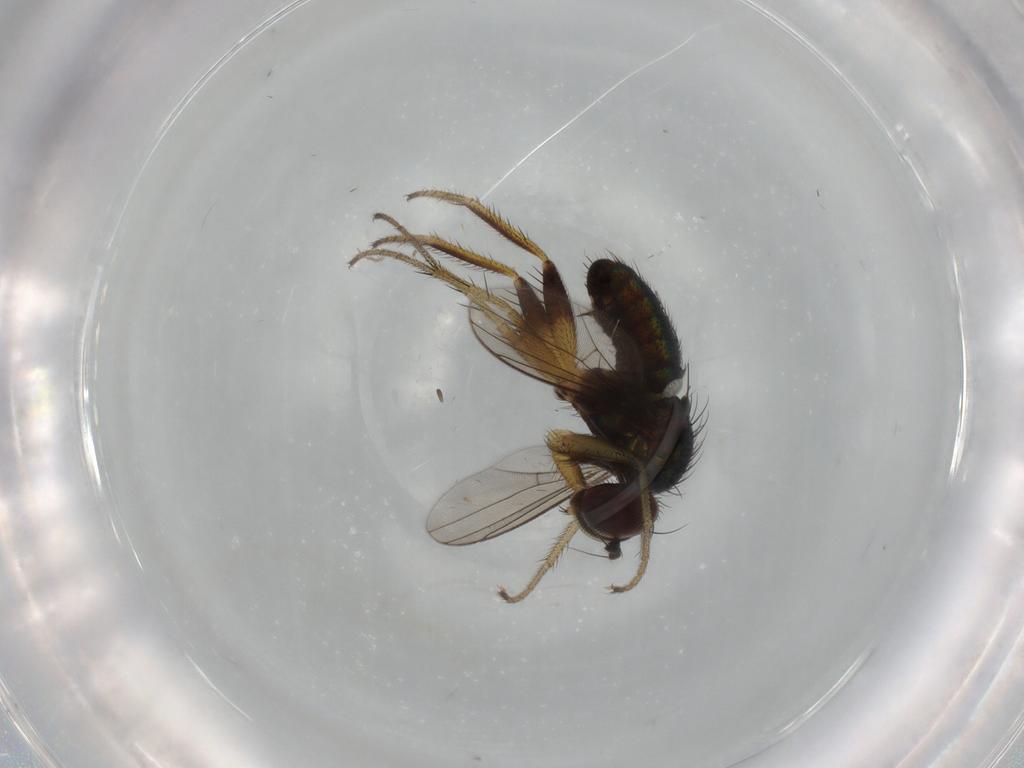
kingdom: Animalia
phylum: Arthropoda
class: Insecta
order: Diptera
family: Dolichopodidae
